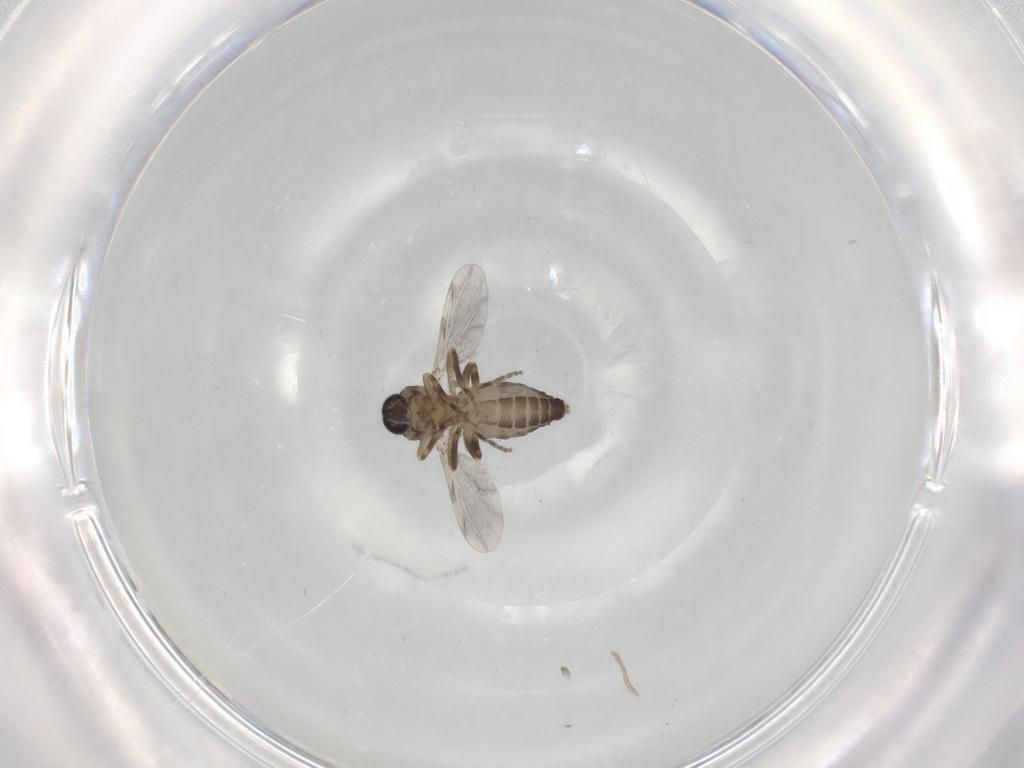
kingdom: Animalia
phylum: Arthropoda
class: Insecta
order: Diptera
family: Ceratopogonidae
